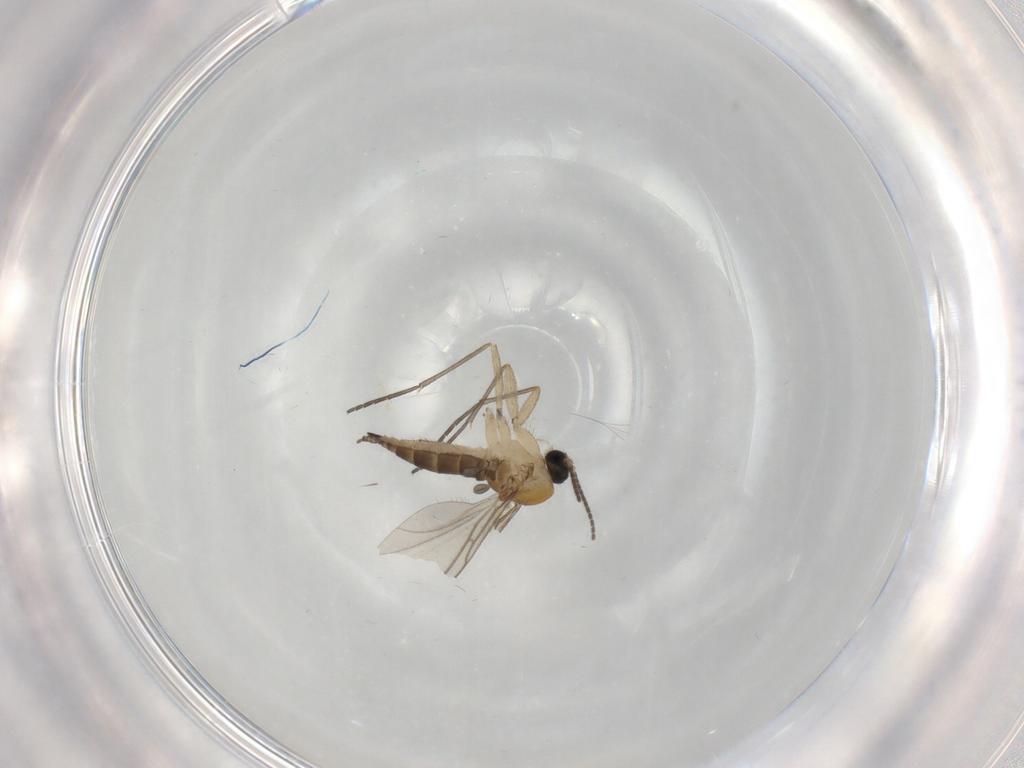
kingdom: Animalia
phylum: Arthropoda
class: Insecta
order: Diptera
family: Sciaridae
